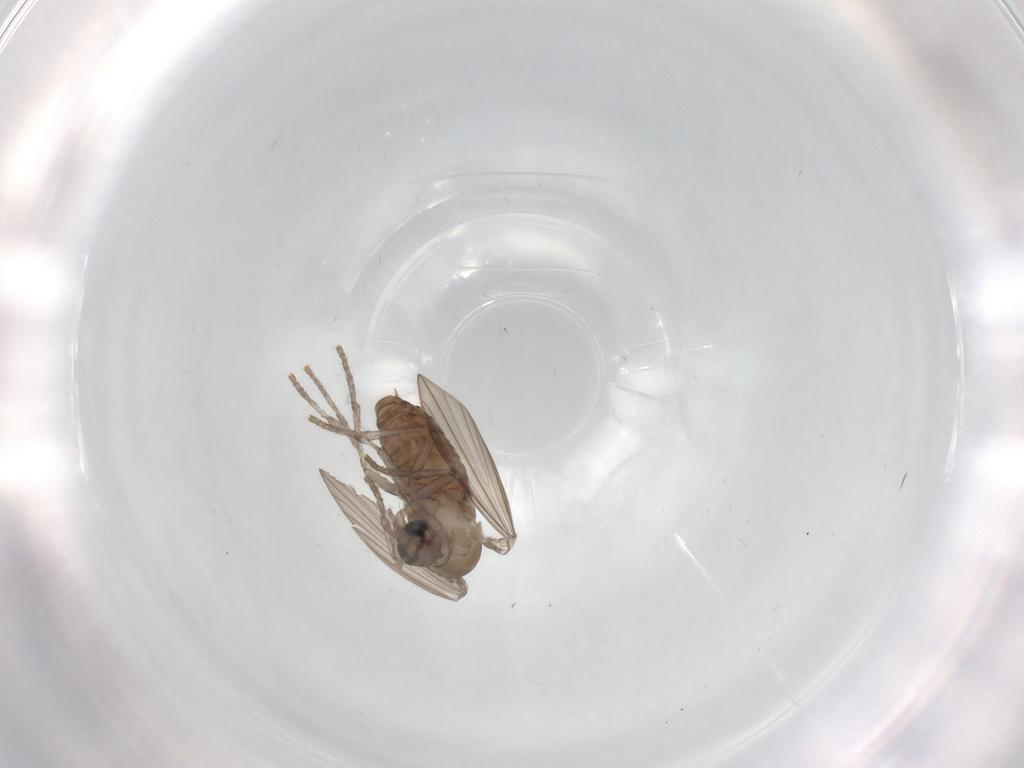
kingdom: Animalia
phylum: Arthropoda
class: Insecta
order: Diptera
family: Psychodidae
